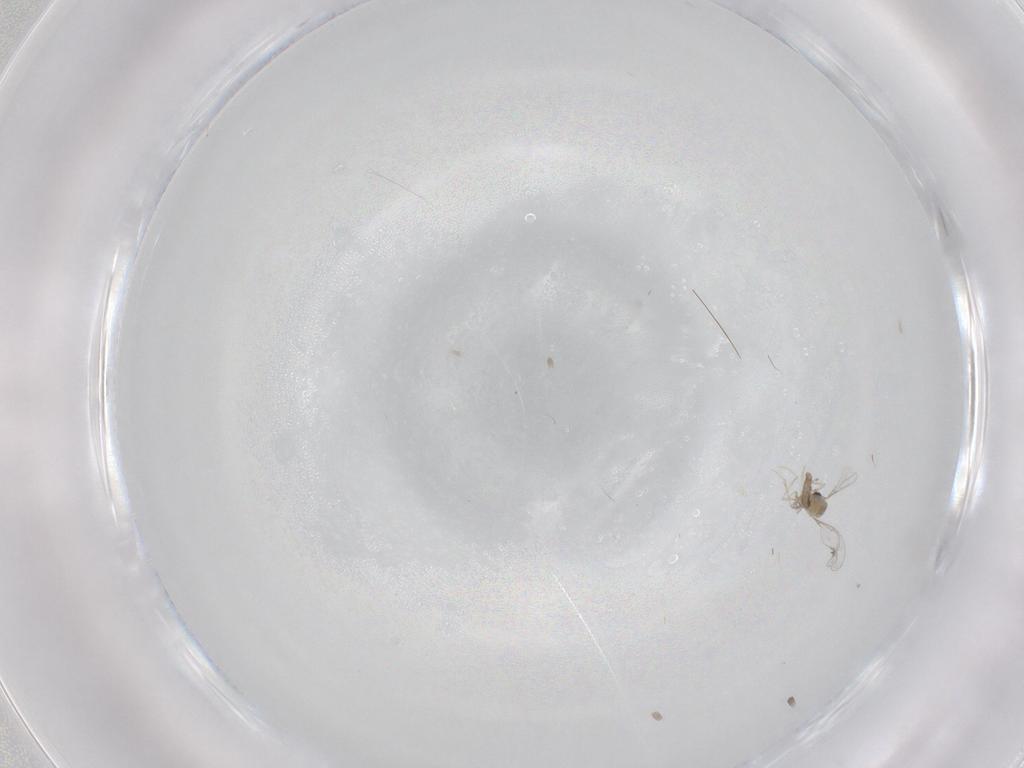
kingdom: Animalia
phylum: Arthropoda
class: Insecta
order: Diptera
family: Cecidomyiidae
